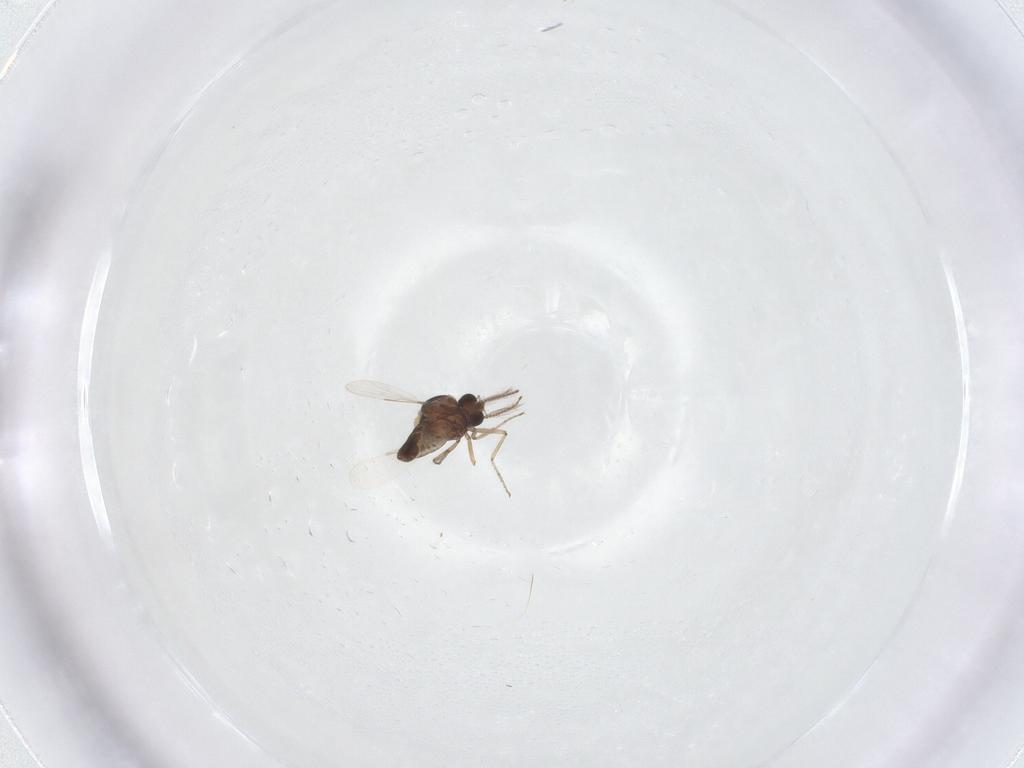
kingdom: Animalia
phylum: Arthropoda
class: Insecta
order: Diptera
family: Ceratopogonidae
